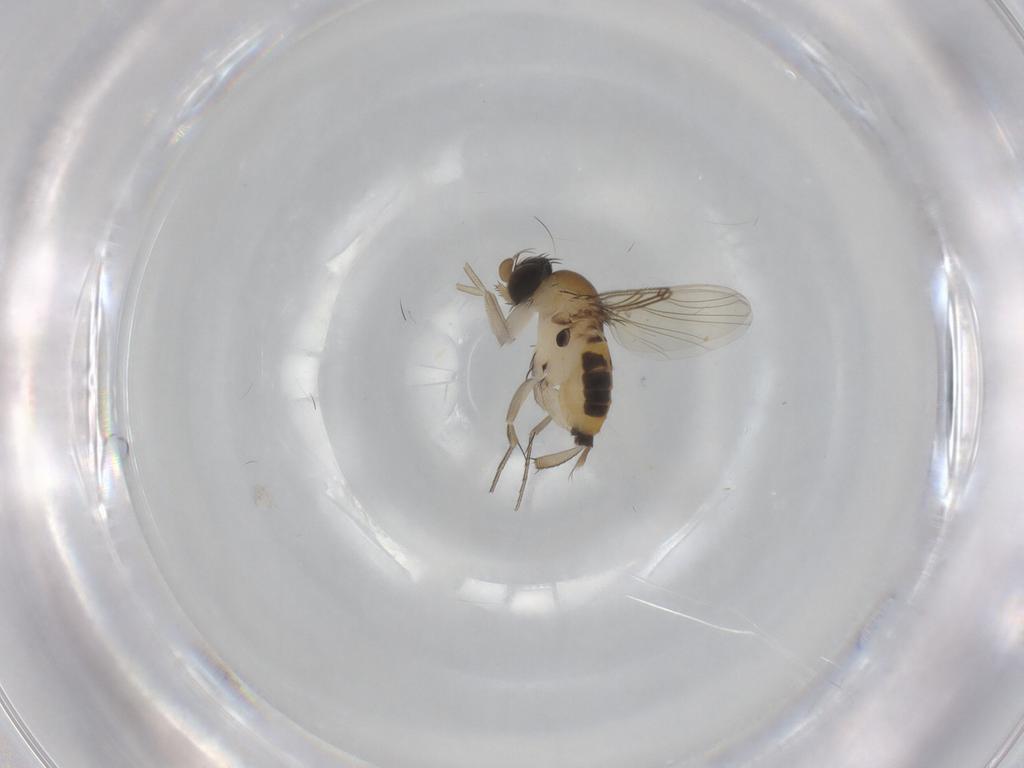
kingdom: Animalia
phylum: Arthropoda
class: Insecta
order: Diptera
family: Phoridae
